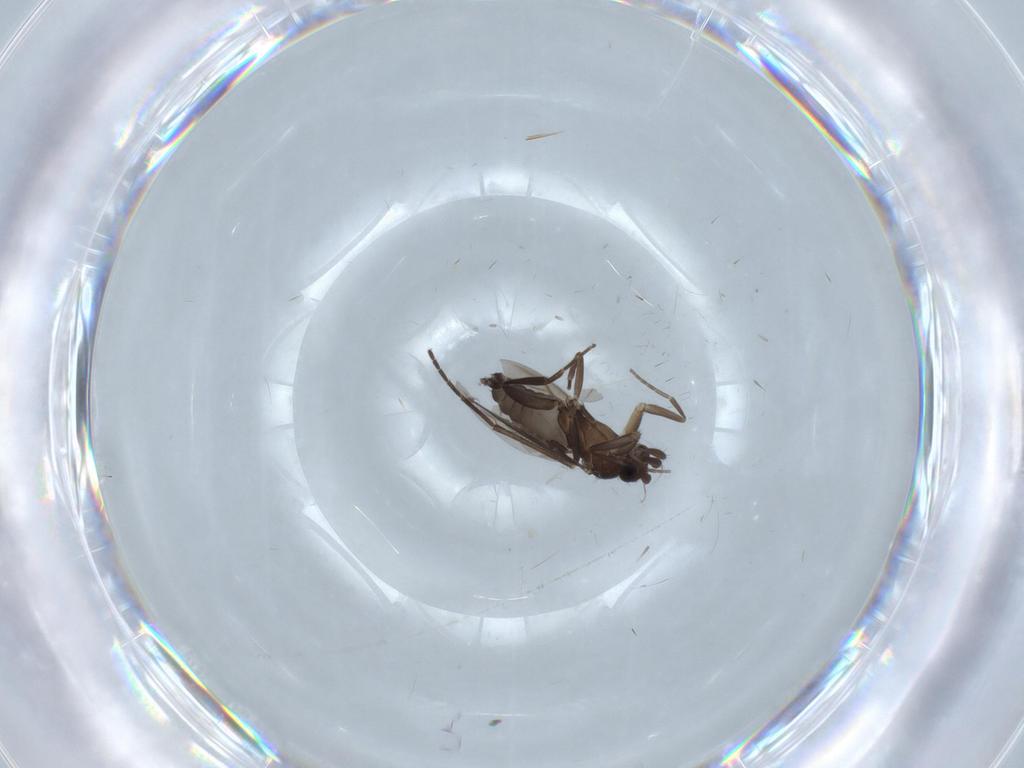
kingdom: Animalia
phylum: Arthropoda
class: Insecta
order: Diptera
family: Phoridae
